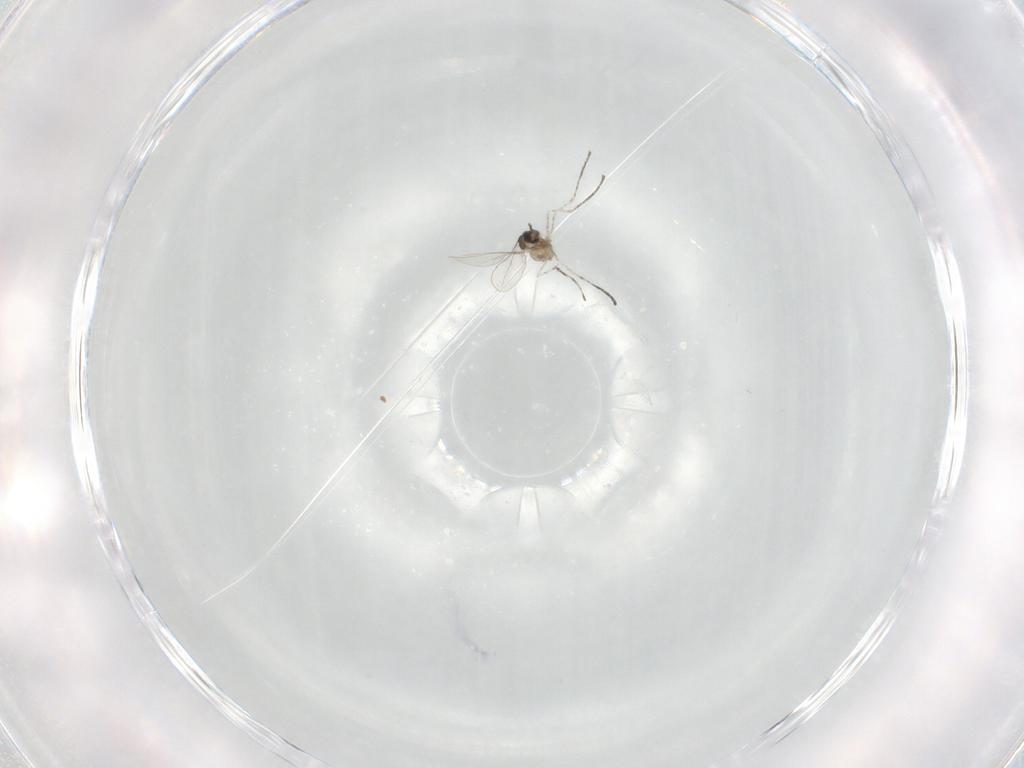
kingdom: Animalia
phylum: Arthropoda
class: Insecta
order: Diptera
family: Cecidomyiidae
